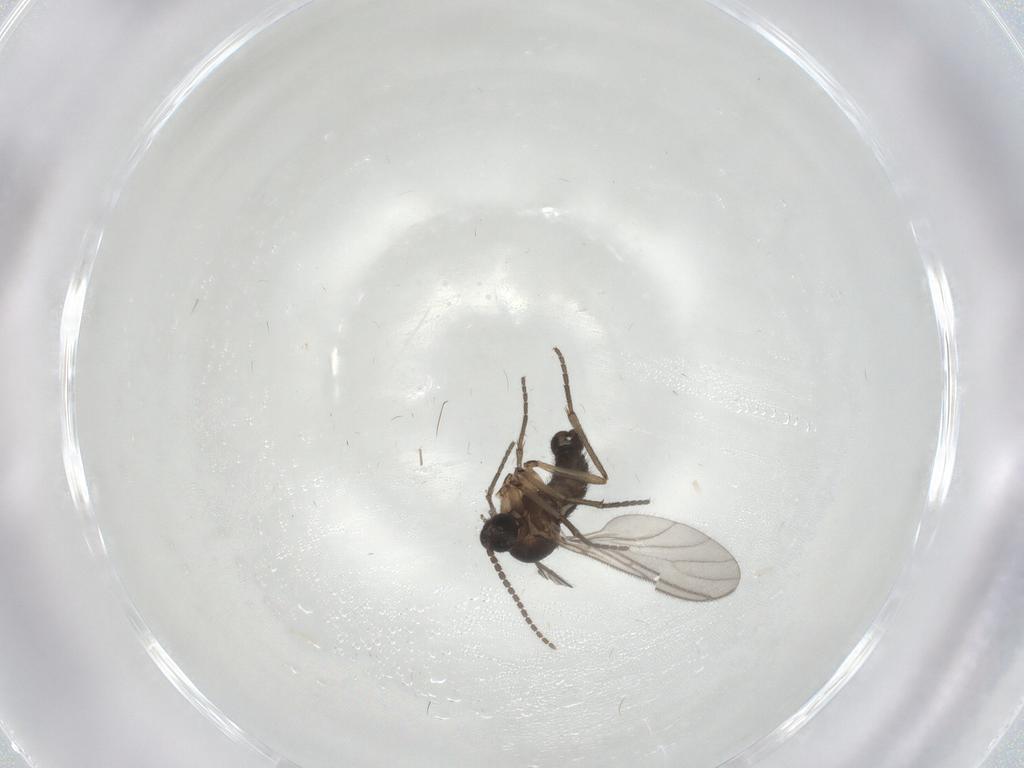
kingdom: Animalia
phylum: Arthropoda
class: Insecta
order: Diptera
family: Sciaridae
